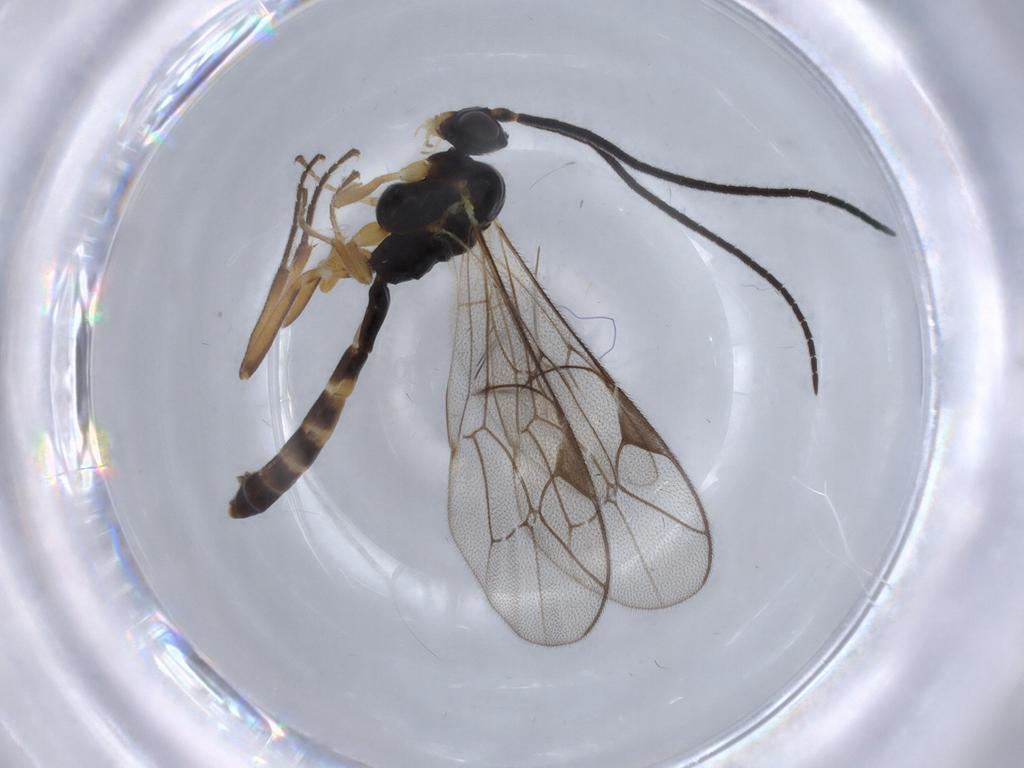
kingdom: Animalia
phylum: Arthropoda
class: Insecta
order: Hymenoptera
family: Ichneumonidae
